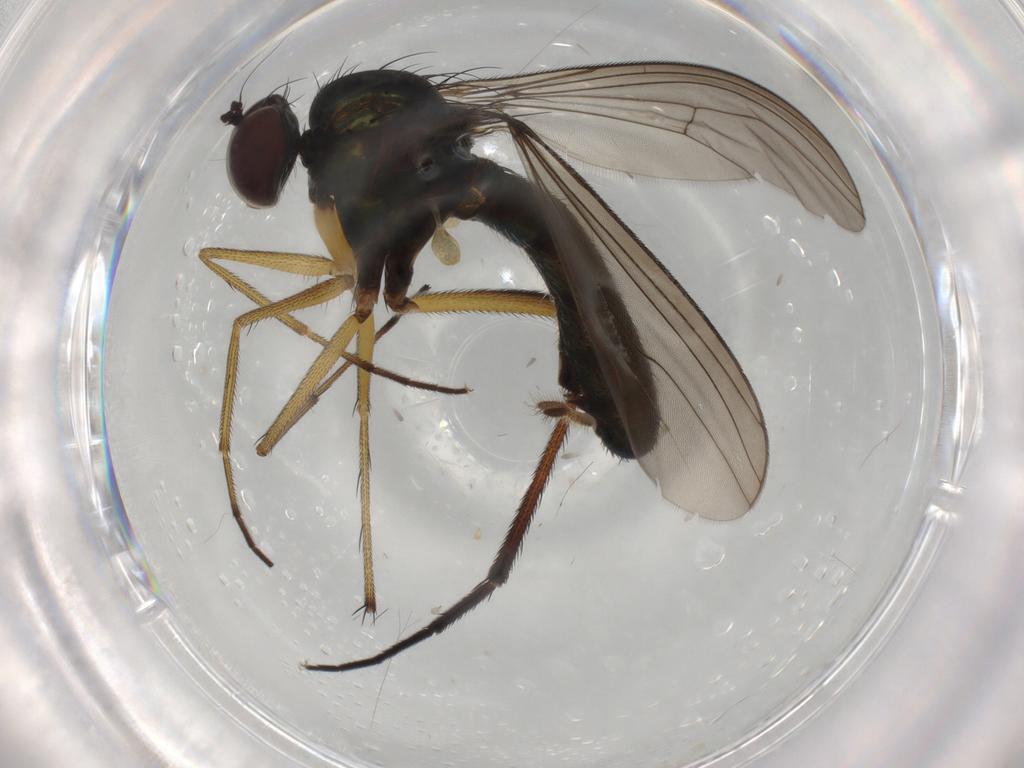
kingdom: Animalia
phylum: Arthropoda
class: Insecta
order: Diptera
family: Dolichopodidae
